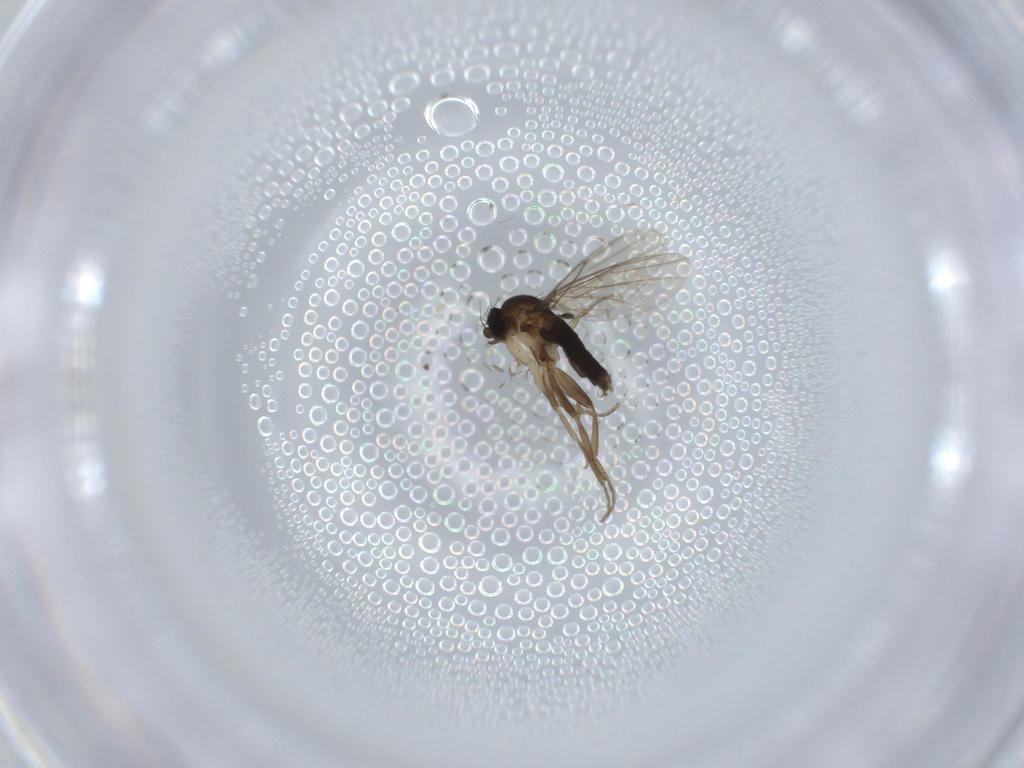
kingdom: Animalia
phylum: Arthropoda
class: Insecta
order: Diptera
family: Phoridae
